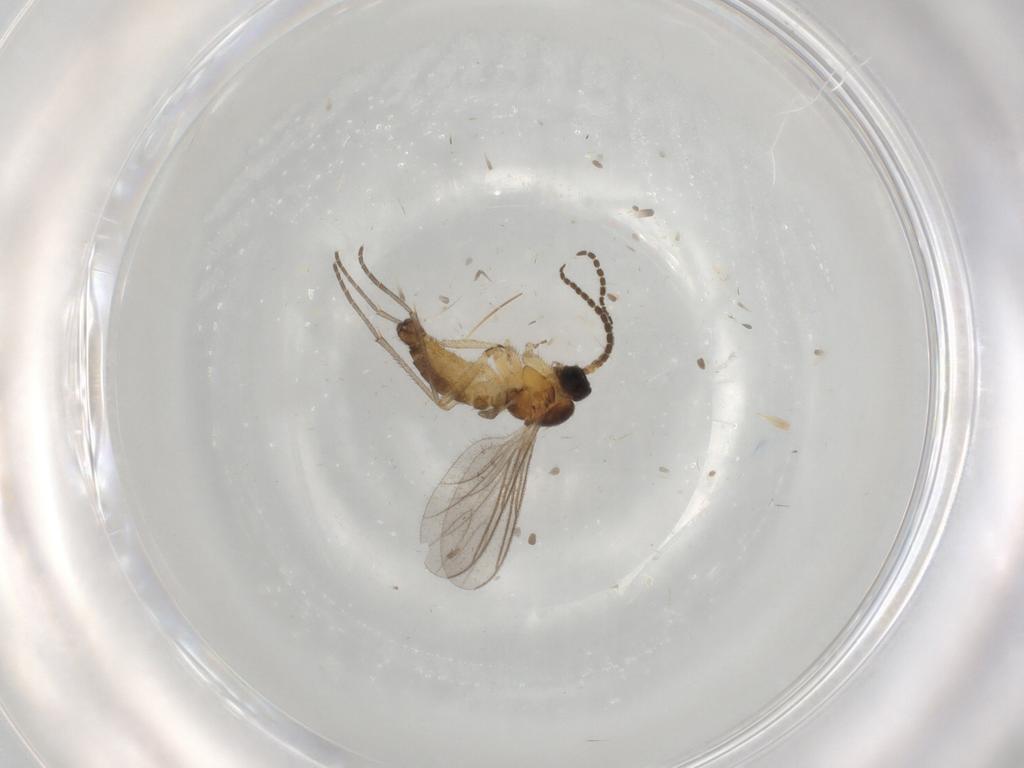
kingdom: Animalia
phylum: Arthropoda
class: Insecta
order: Diptera
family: Sciaridae
